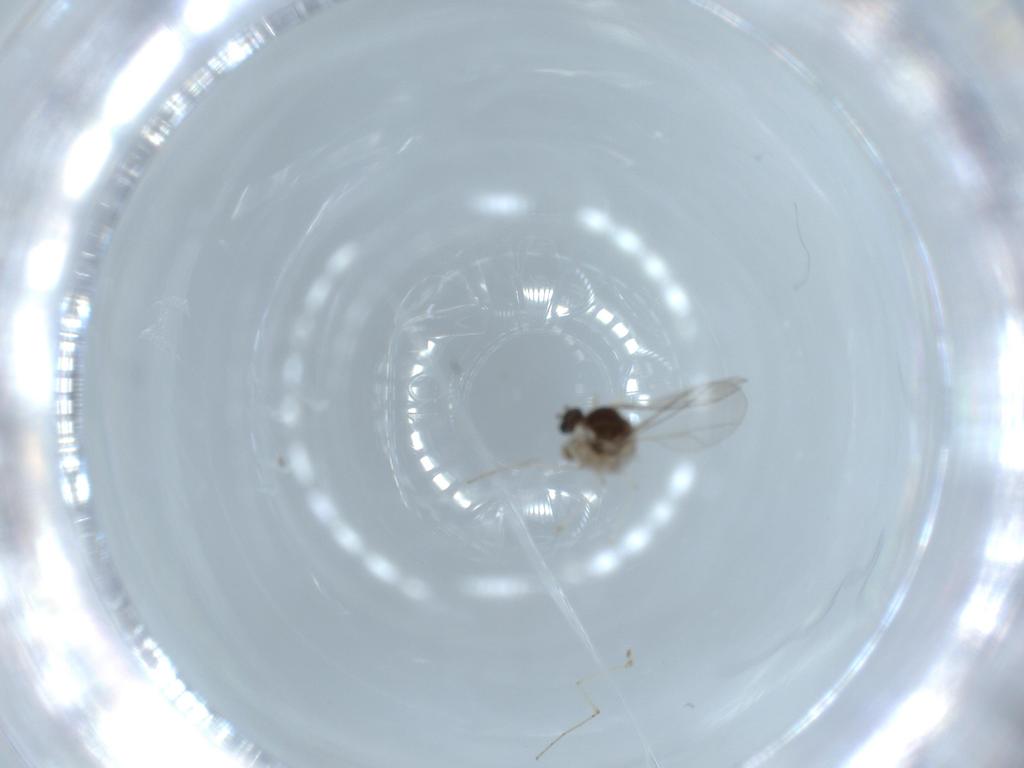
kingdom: Animalia
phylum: Arthropoda
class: Insecta
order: Diptera
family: Cecidomyiidae
